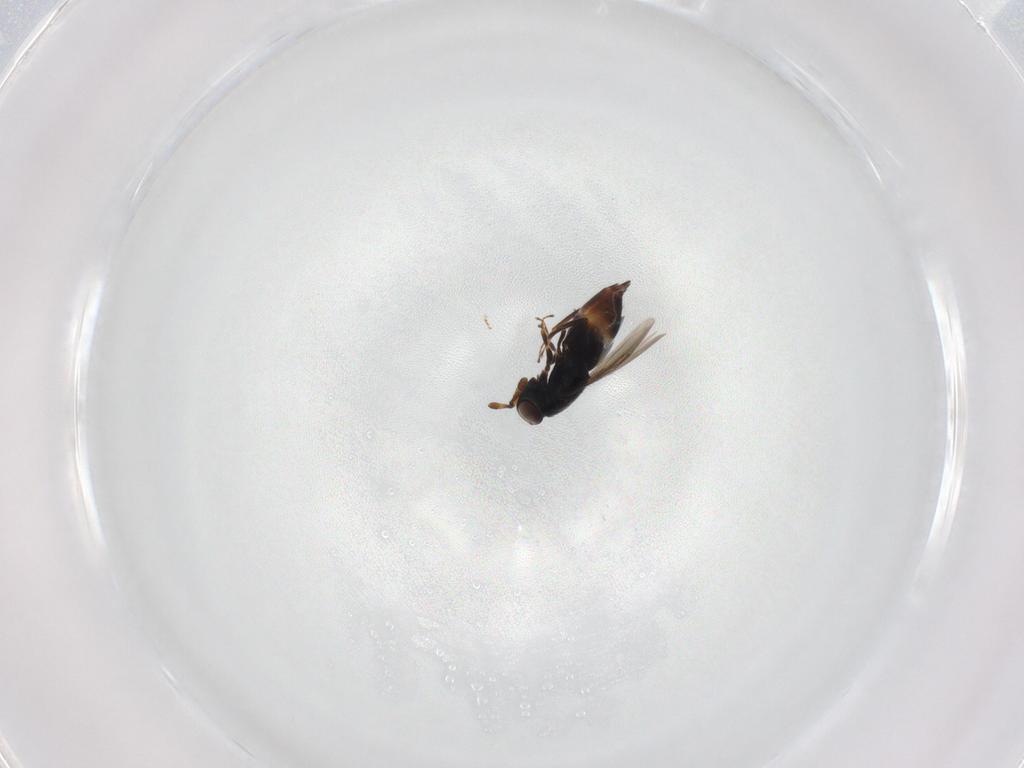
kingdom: Animalia
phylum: Arthropoda
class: Insecta
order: Hymenoptera
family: Eunotidae
